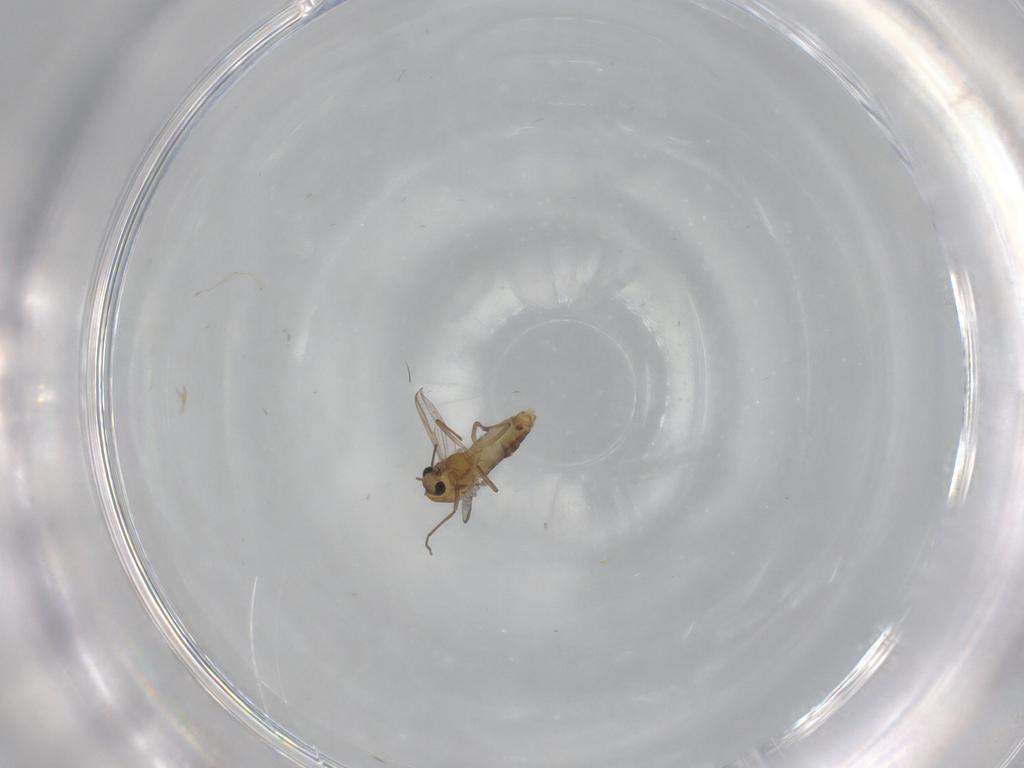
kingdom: Animalia
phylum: Arthropoda
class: Insecta
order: Diptera
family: Chironomidae
